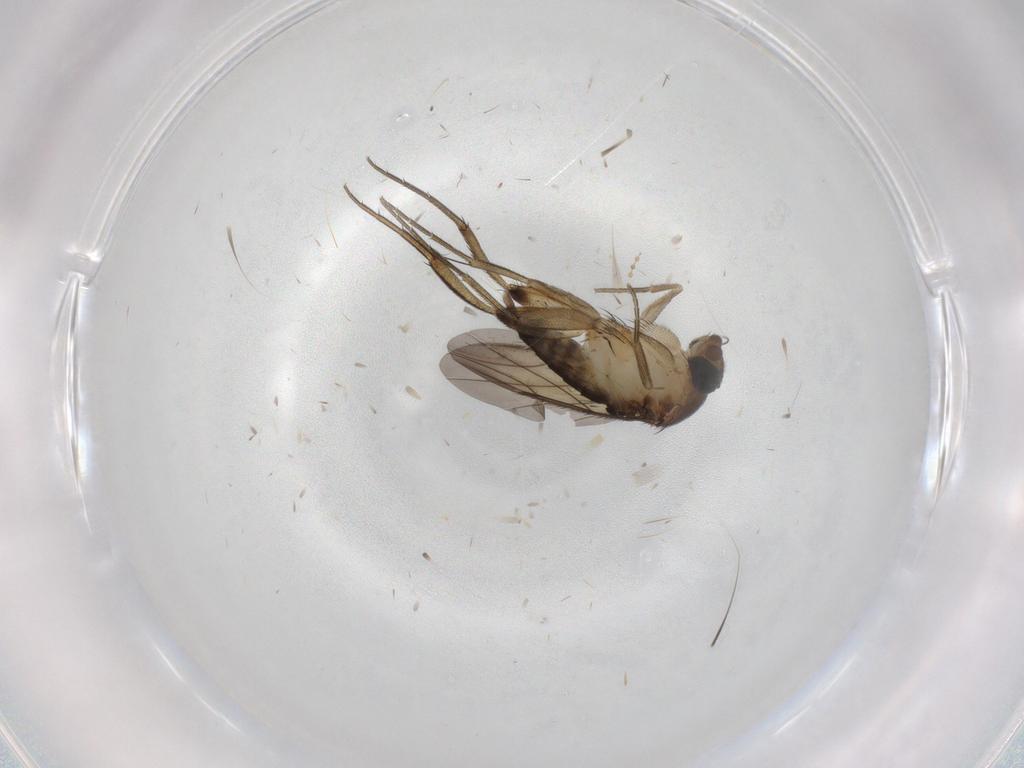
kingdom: Animalia
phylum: Arthropoda
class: Insecta
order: Diptera
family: Cecidomyiidae
